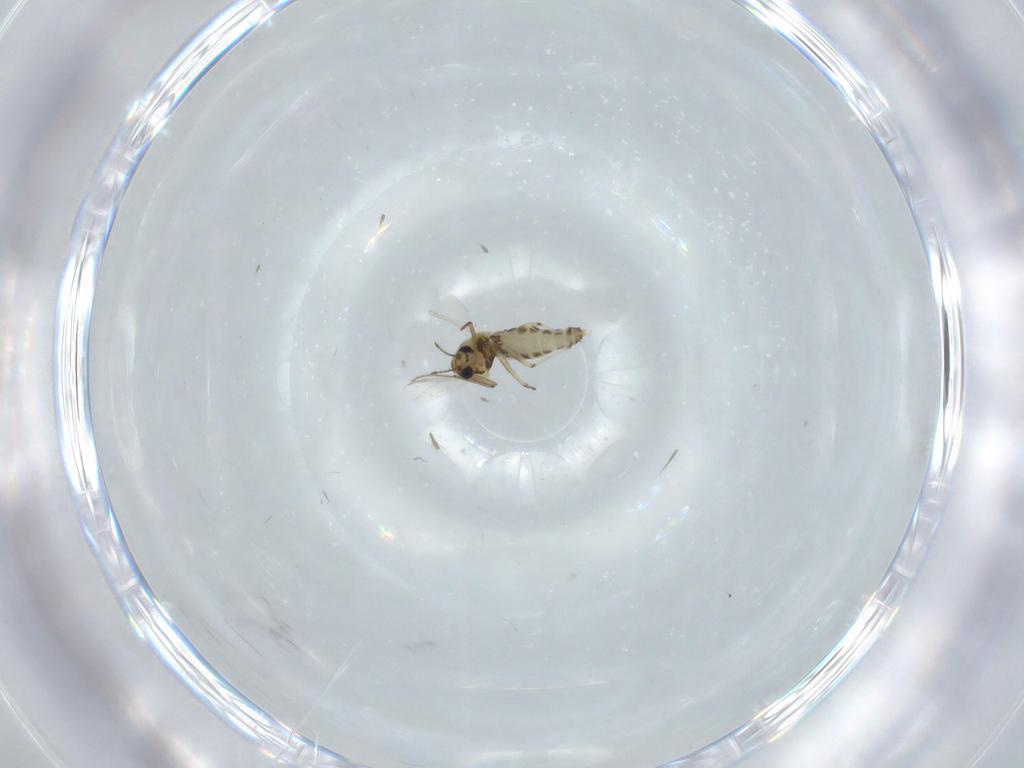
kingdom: Animalia
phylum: Arthropoda
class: Insecta
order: Diptera
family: Chironomidae
